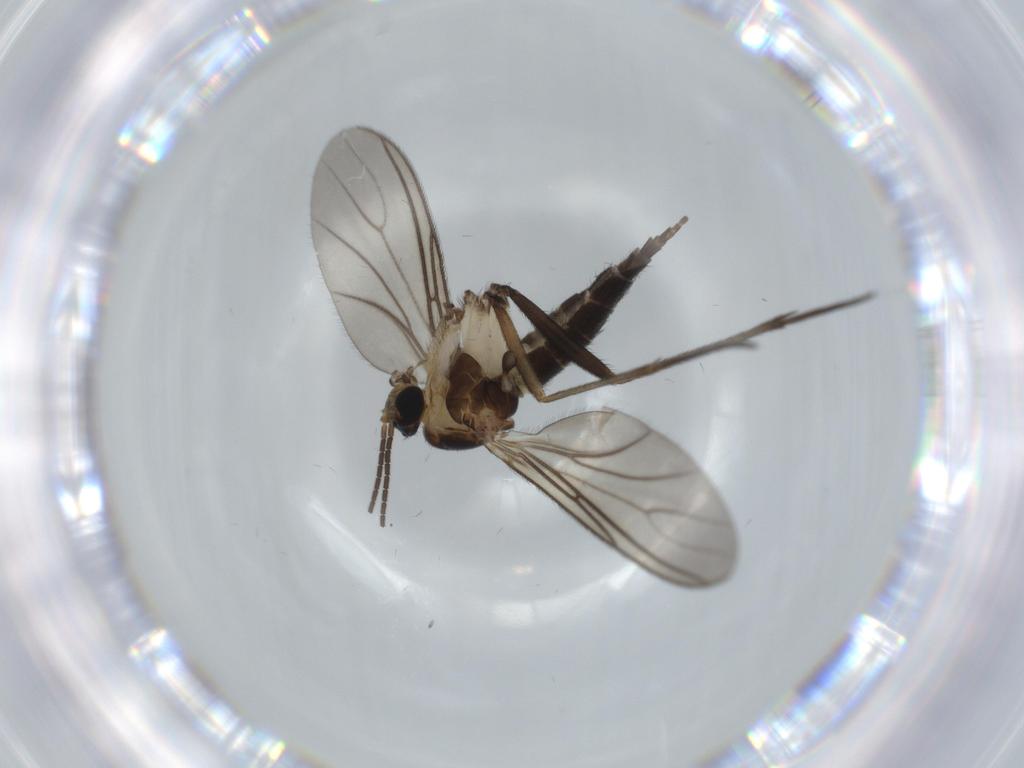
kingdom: Animalia
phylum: Arthropoda
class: Insecta
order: Diptera
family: Sciaridae
